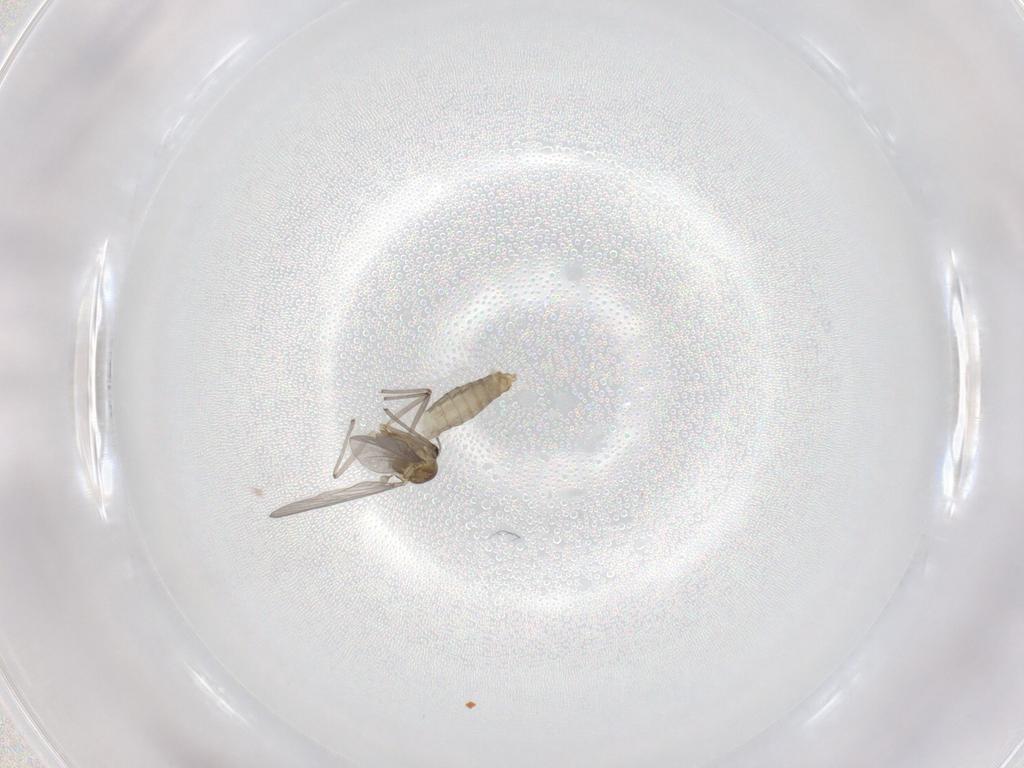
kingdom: Animalia
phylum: Arthropoda
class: Insecta
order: Diptera
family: Chironomidae
